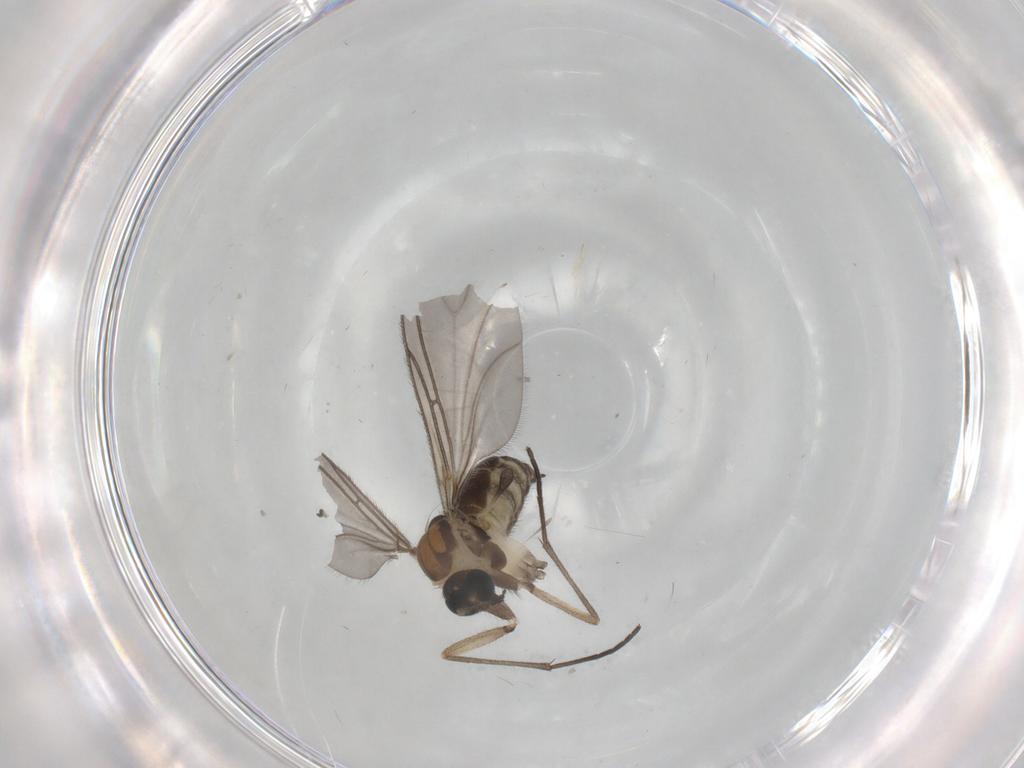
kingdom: Animalia
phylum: Arthropoda
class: Insecta
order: Diptera
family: Sciaridae
